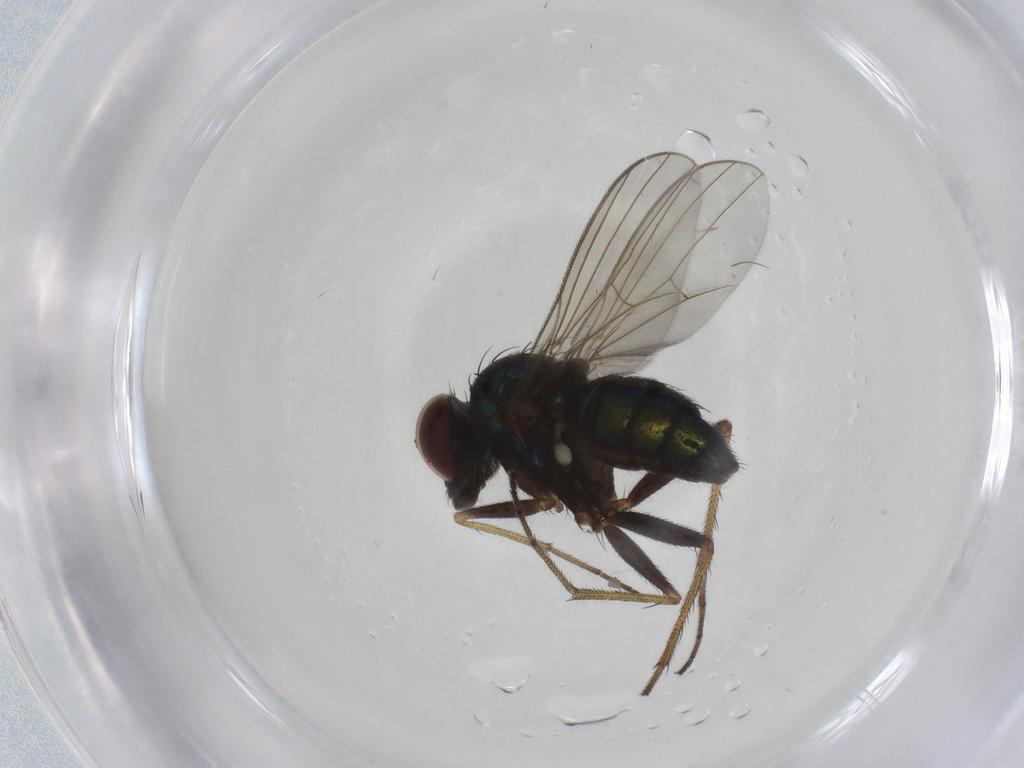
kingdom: Animalia
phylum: Arthropoda
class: Insecta
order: Diptera
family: Dolichopodidae
